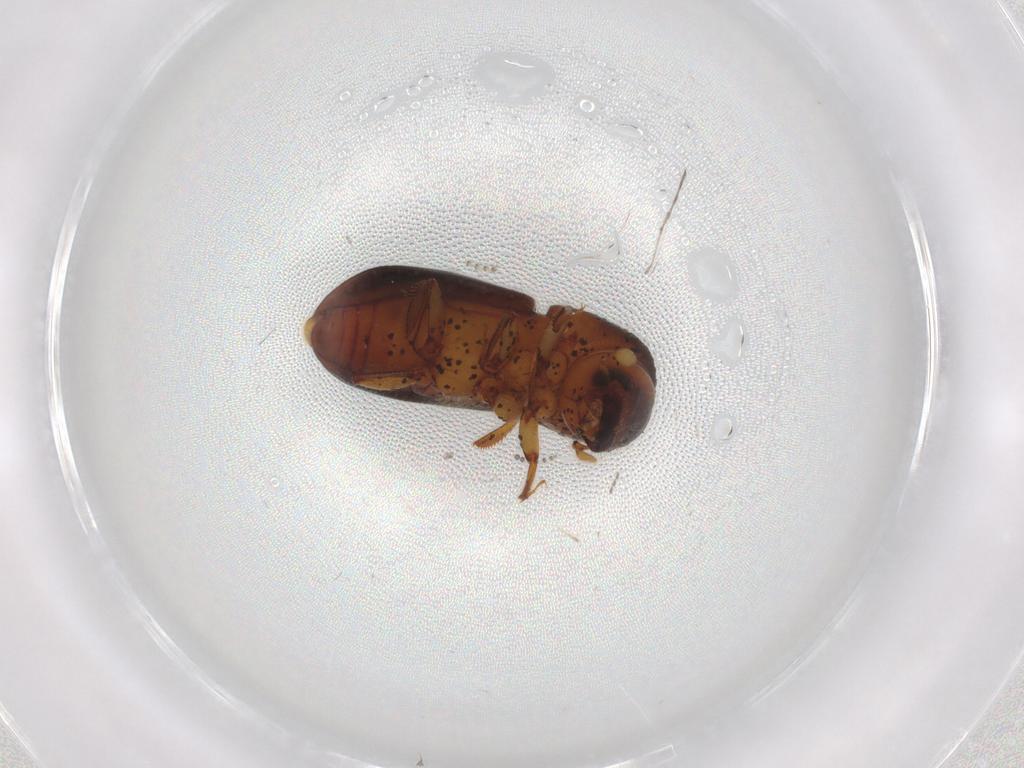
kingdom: Animalia
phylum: Arthropoda
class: Insecta
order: Coleoptera
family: Curculionidae
